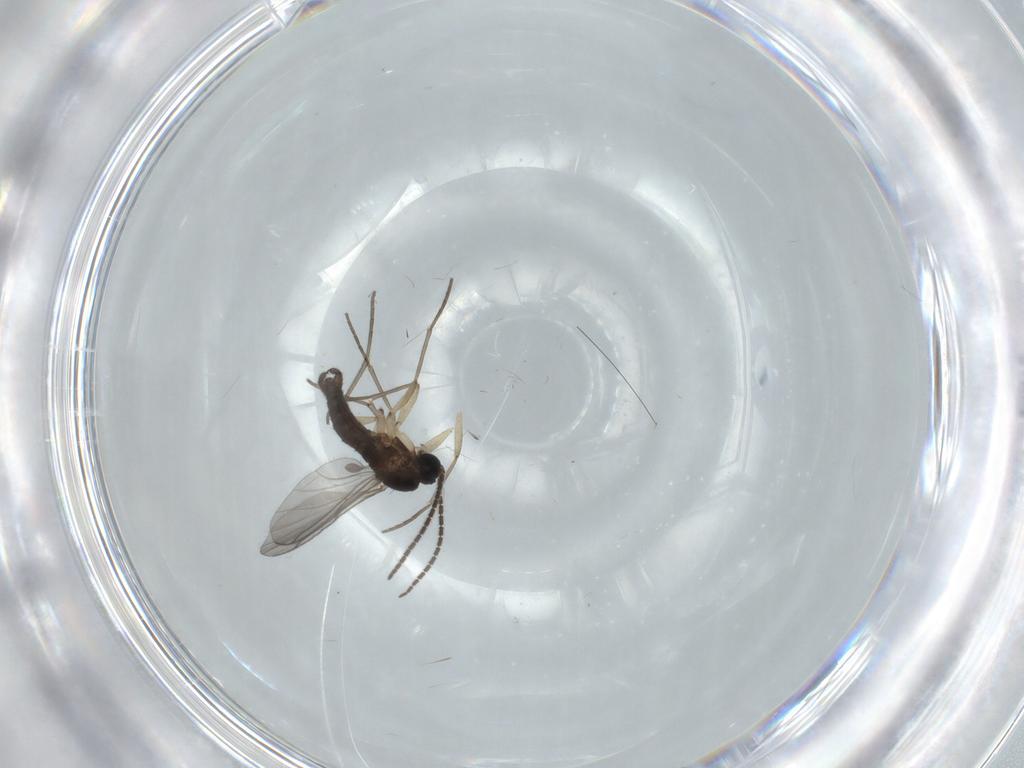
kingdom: Animalia
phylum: Arthropoda
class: Insecta
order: Diptera
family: Sciaridae
